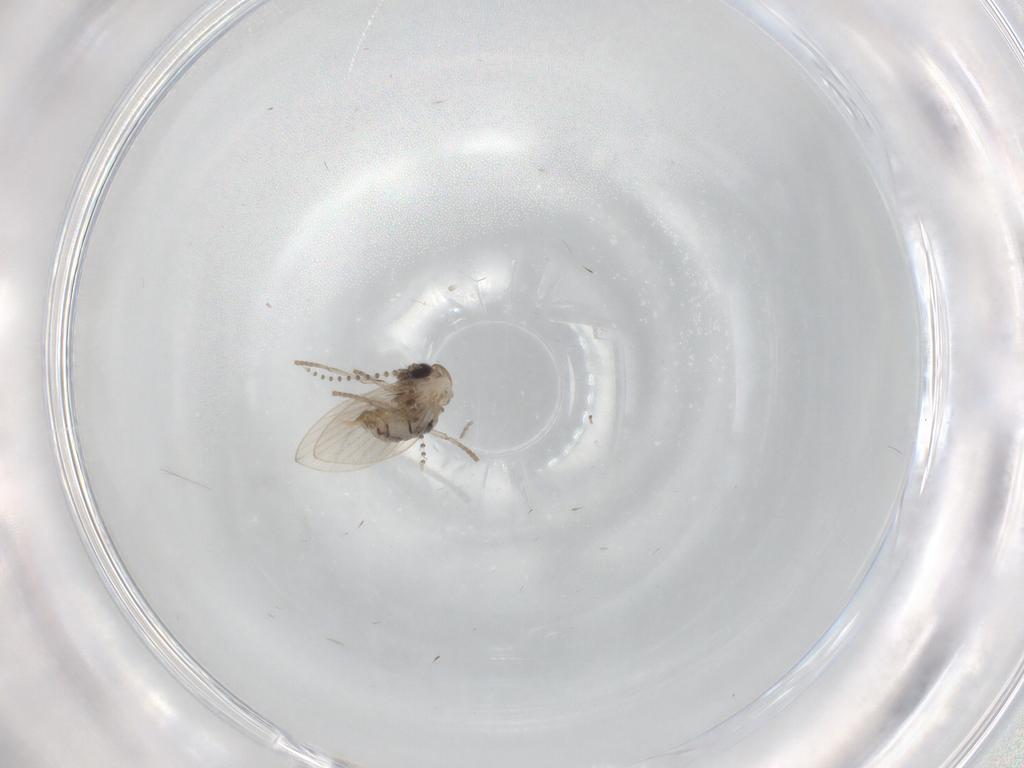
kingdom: Animalia
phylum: Arthropoda
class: Insecta
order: Diptera
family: Psychodidae
